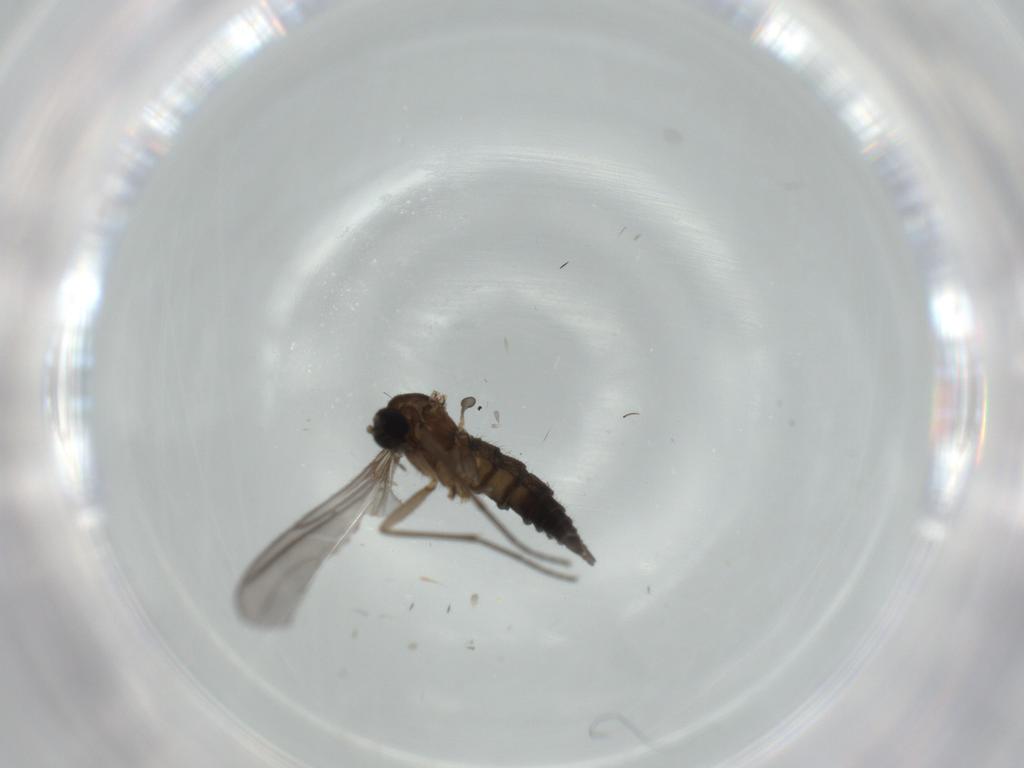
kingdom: Animalia
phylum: Arthropoda
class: Insecta
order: Diptera
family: Sciaridae
